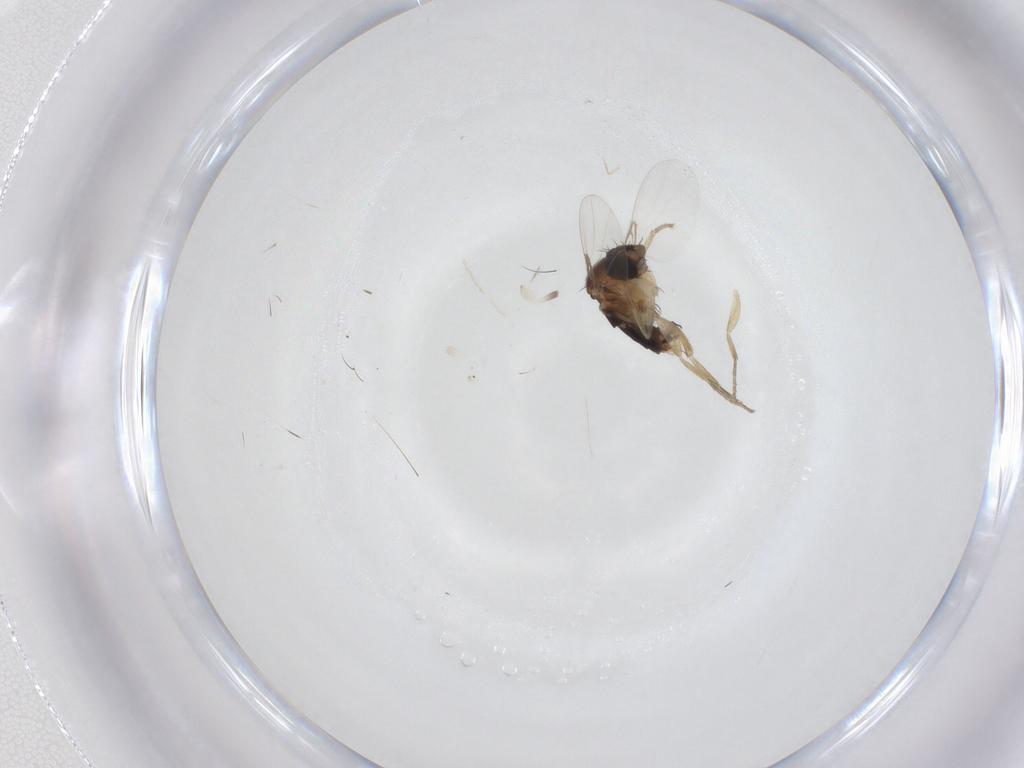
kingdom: Animalia
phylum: Arthropoda
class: Insecta
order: Diptera
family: Phoridae
